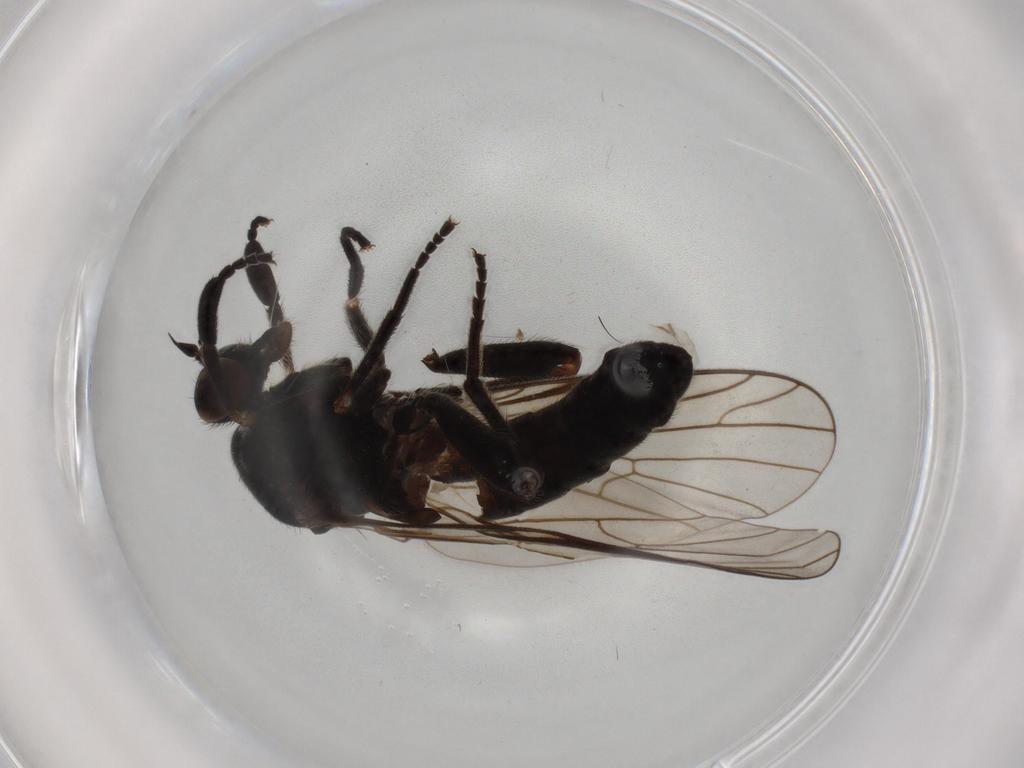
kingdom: Animalia
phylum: Arthropoda
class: Insecta
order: Diptera
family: Empididae
